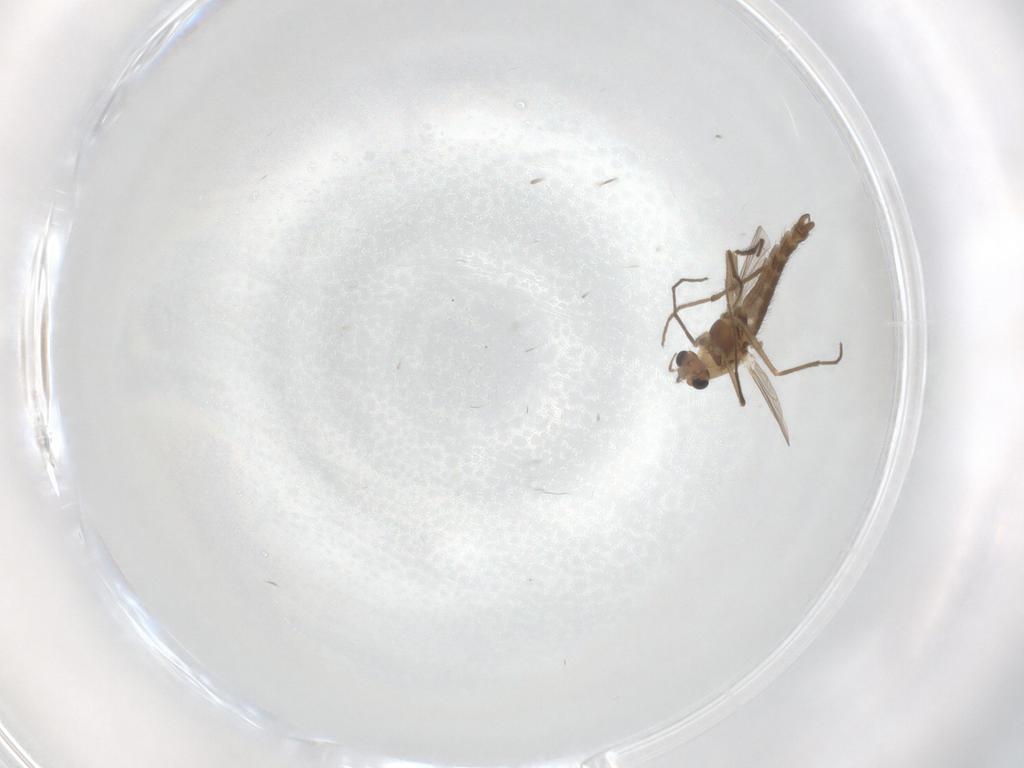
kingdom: Animalia
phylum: Arthropoda
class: Insecta
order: Diptera
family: Chironomidae
